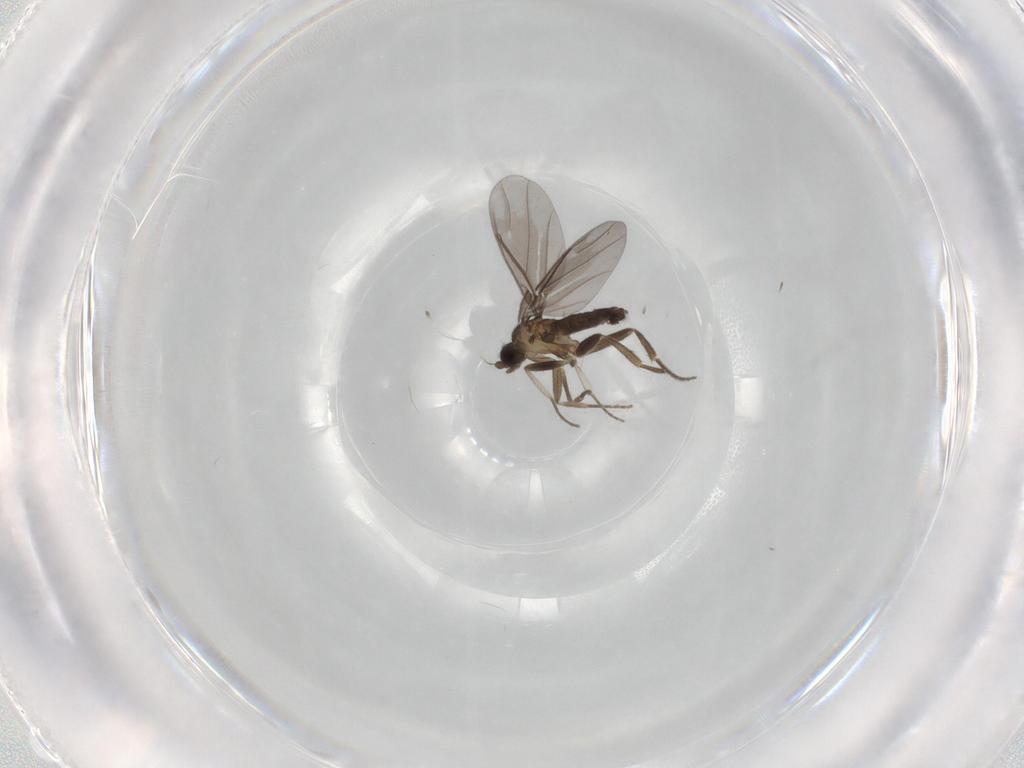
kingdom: Animalia
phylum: Arthropoda
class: Insecta
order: Diptera
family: Phoridae
